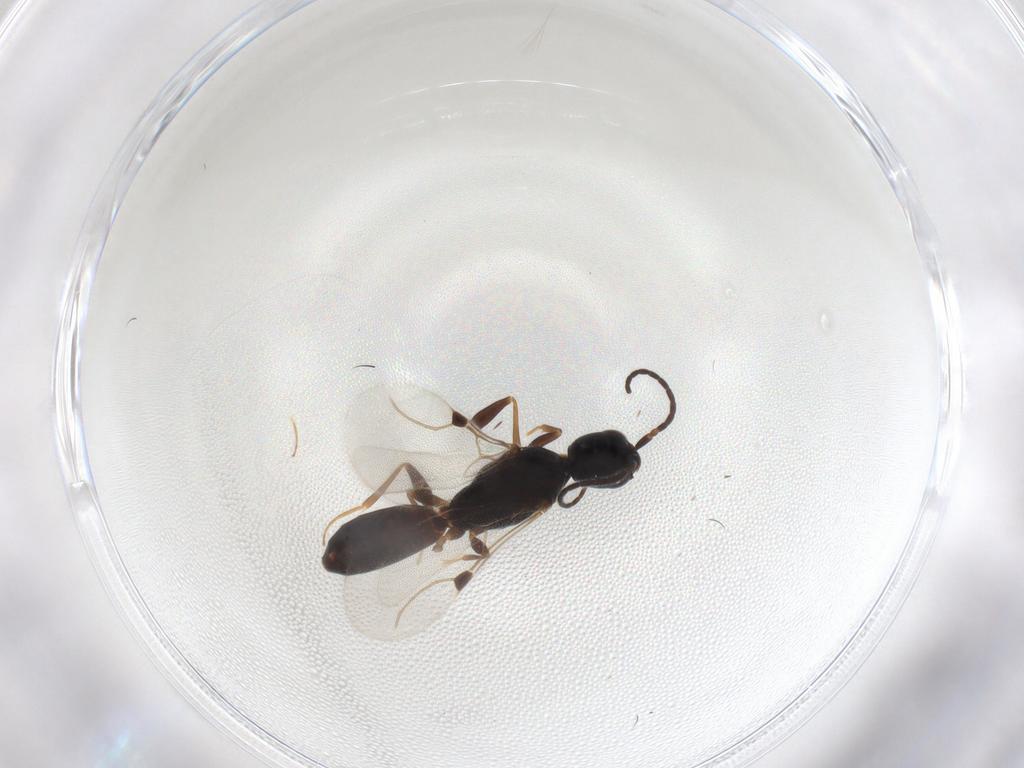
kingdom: Animalia
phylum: Arthropoda
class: Insecta
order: Hymenoptera
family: Bethylidae
